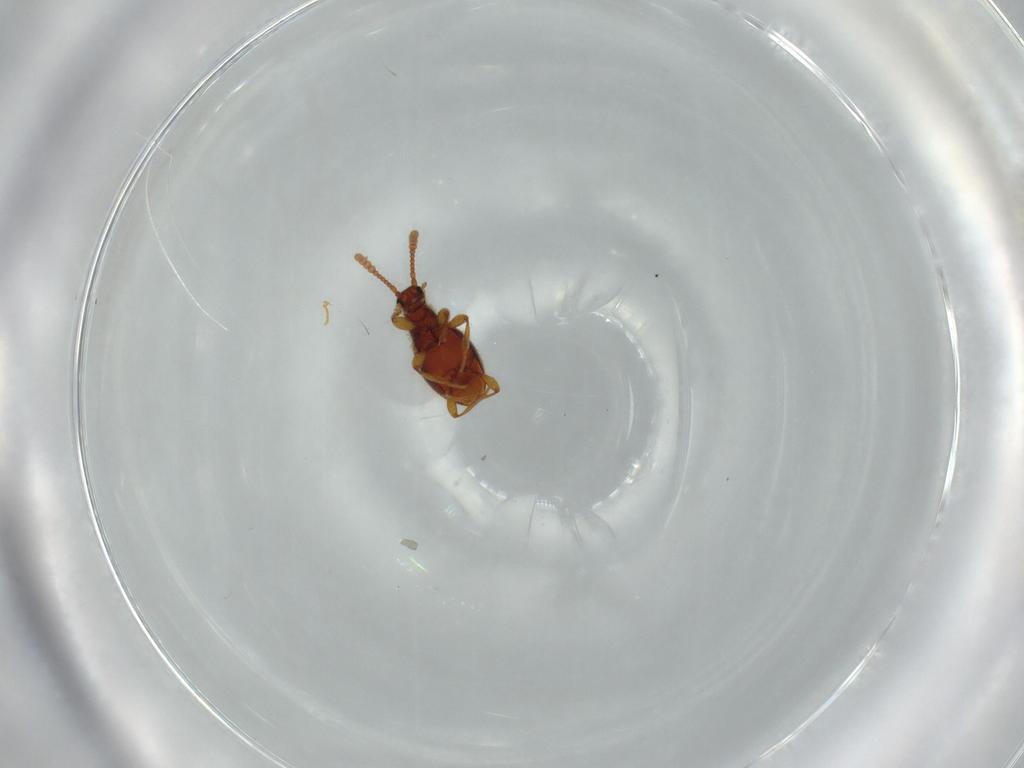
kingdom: Animalia
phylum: Arthropoda
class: Insecta
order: Coleoptera
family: Staphylinidae
